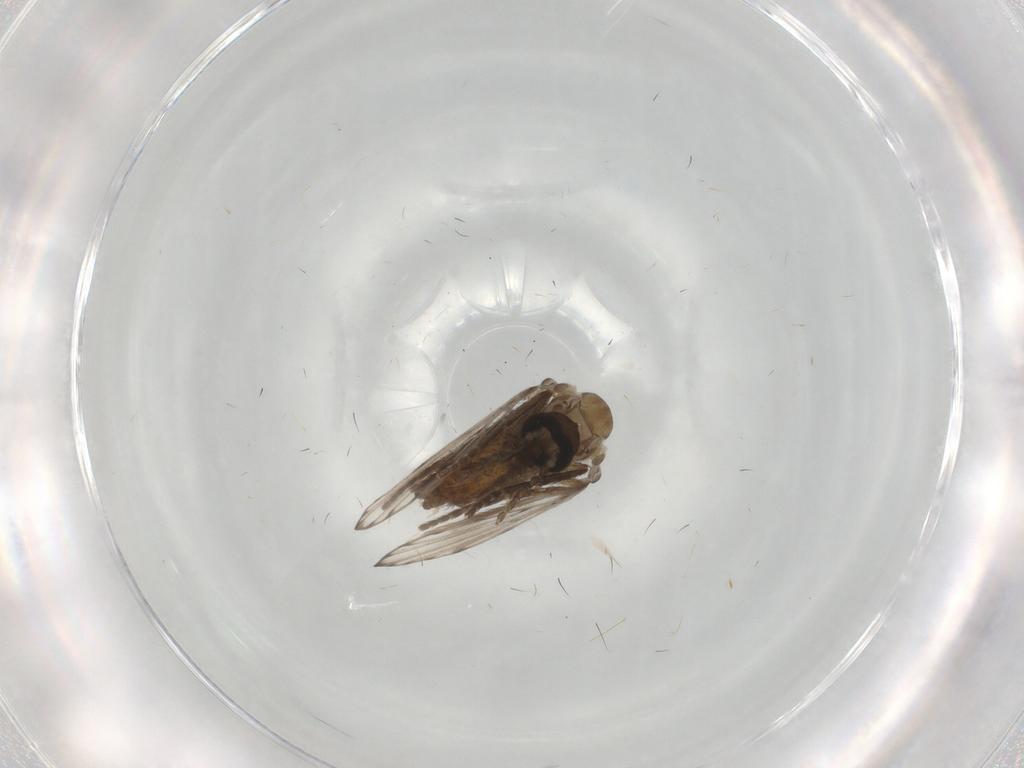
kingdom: Animalia
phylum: Arthropoda
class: Insecta
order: Diptera
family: Psychodidae
